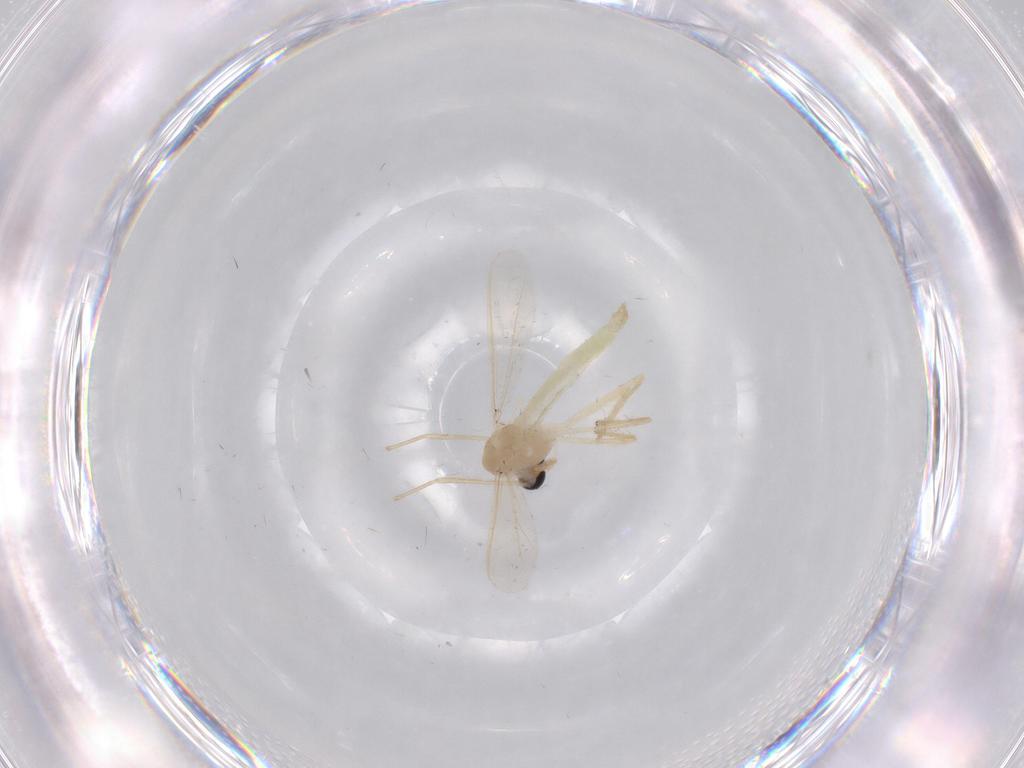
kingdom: Animalia
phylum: Arthropoda
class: Insecta
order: Diptera
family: Chironomidae
